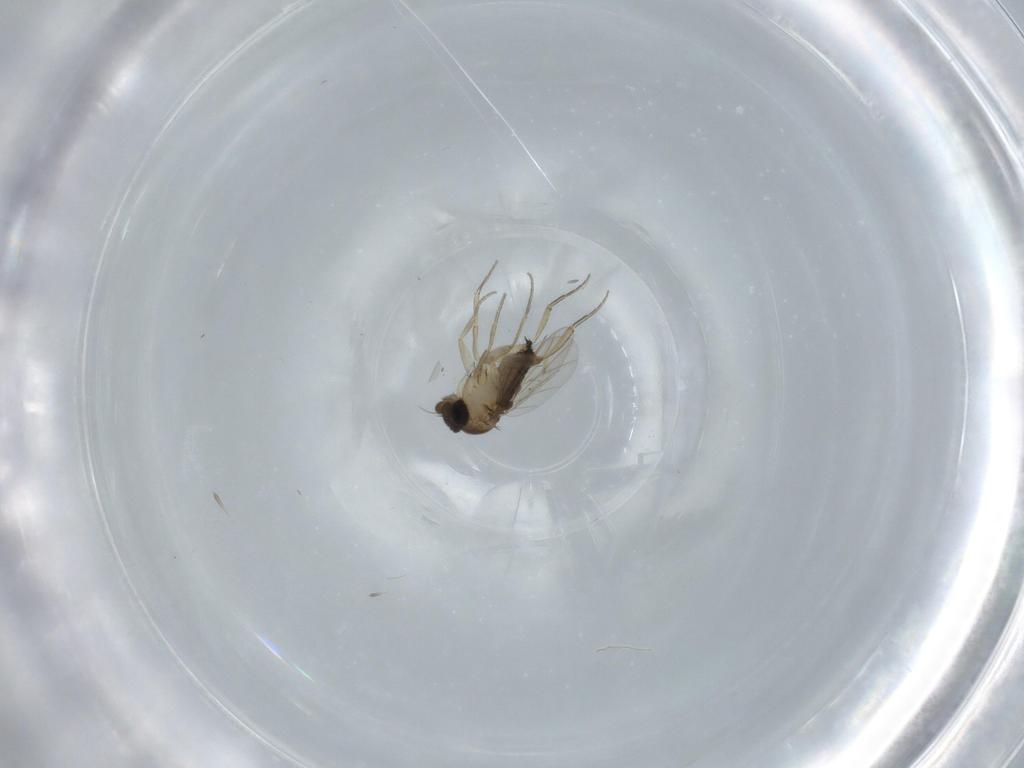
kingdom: Animalia
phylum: Arthropoda
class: Insecta
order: Diptera
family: Phoridae
